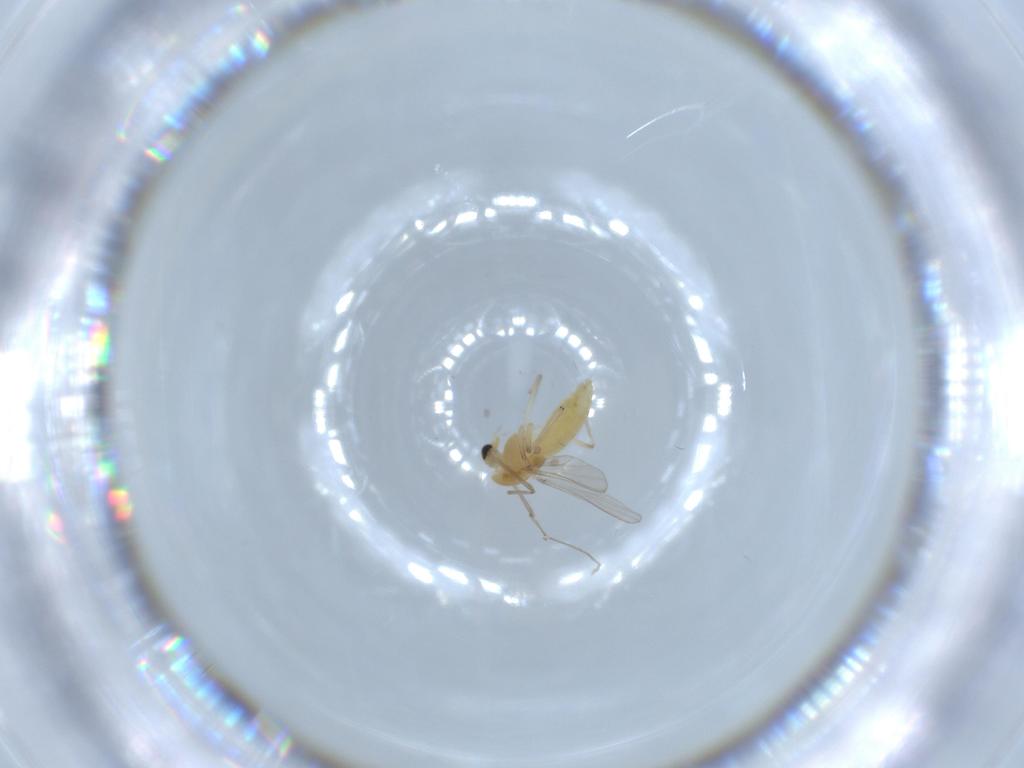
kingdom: Animalia
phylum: Arthropoda
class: Insecta
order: Diptera
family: Chironomidae
